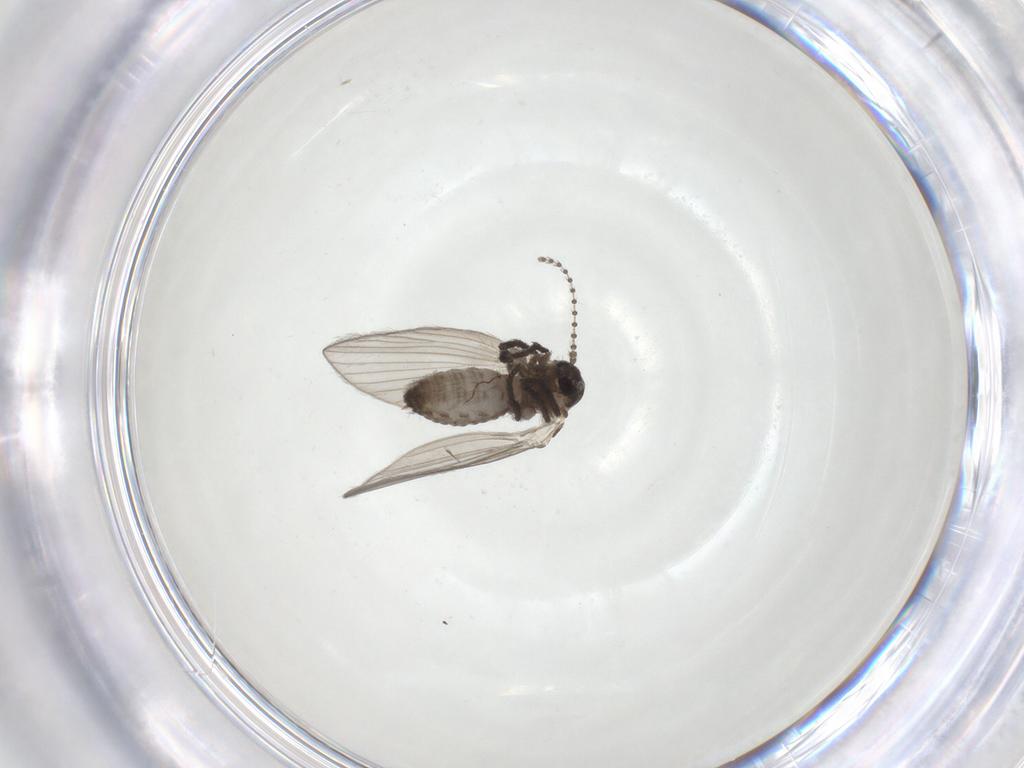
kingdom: Animalia
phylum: Arthropoda
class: Insecta
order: Diptera
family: Psychodidae
